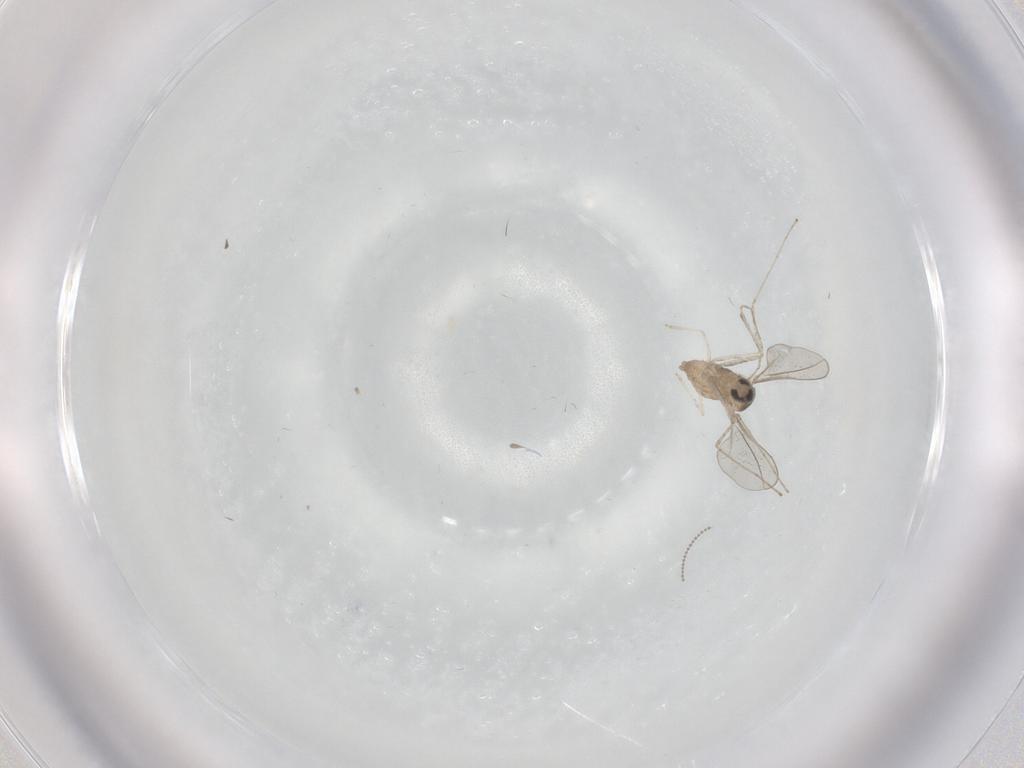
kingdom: Animalia
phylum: Arthropoda
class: Insecta
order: Diptera
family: Cecidomyiidae
